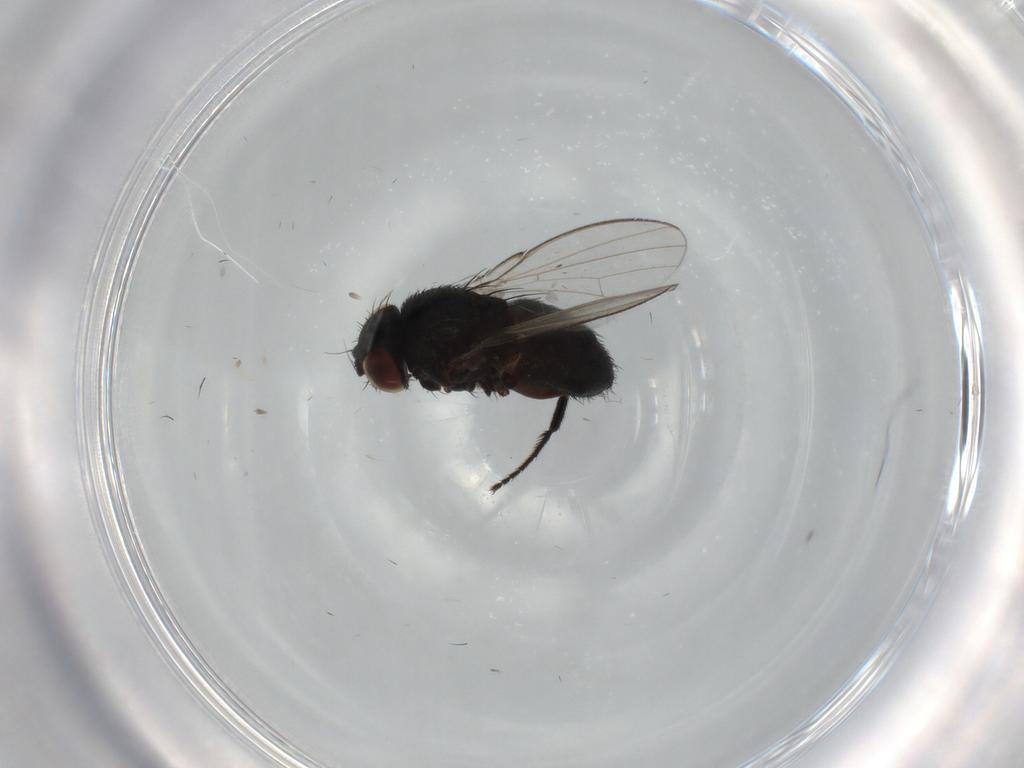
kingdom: Animalia
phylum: Arthropoda
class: Insecta
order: Diptera
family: Milichiidae
